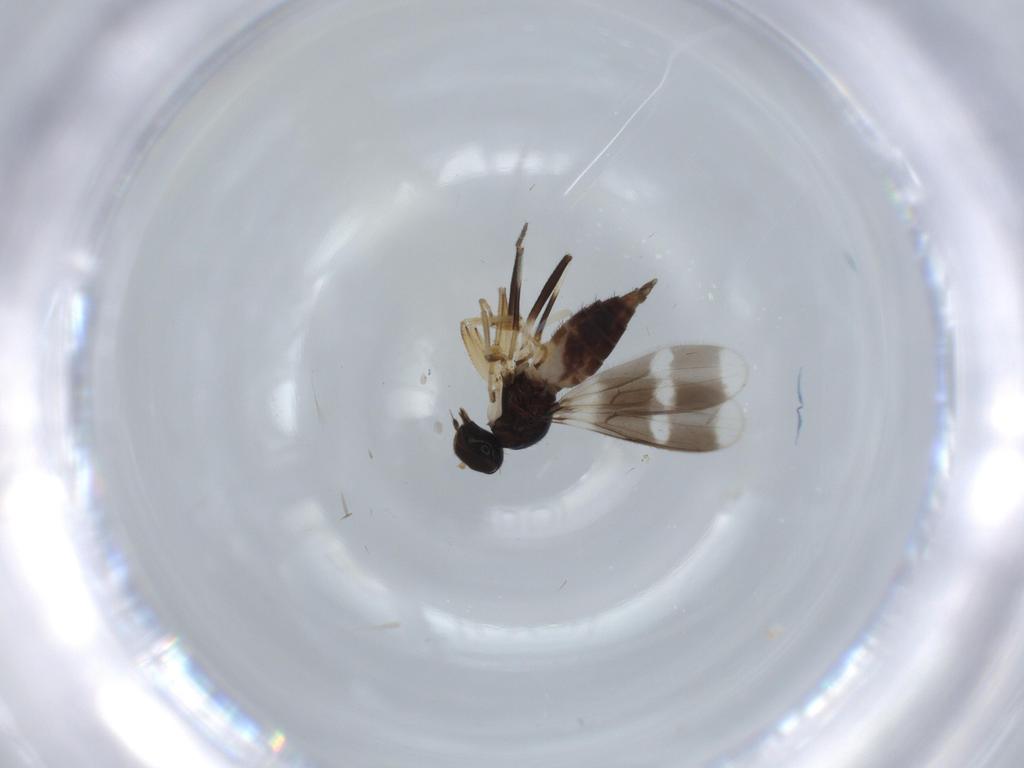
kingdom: Animalia
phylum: Arthropoda
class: Insecta
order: Diptera
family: Hybotidae
